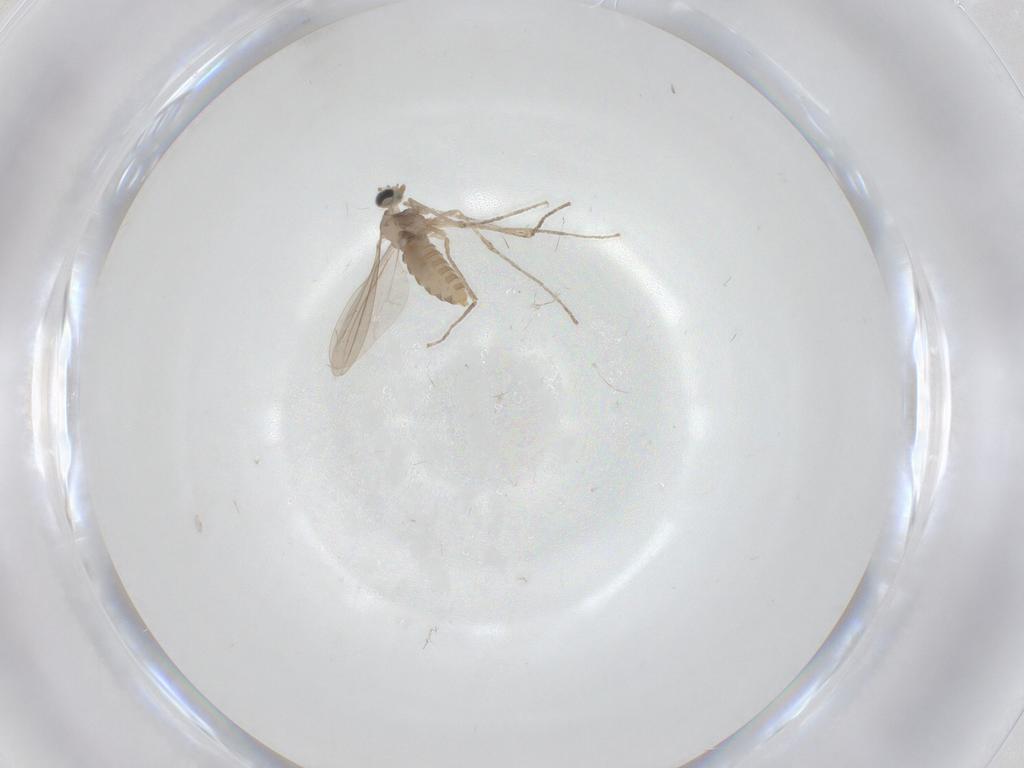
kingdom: Animalia
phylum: Arthropoda
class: Insecta
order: Diptera
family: Cecidomyiidae
